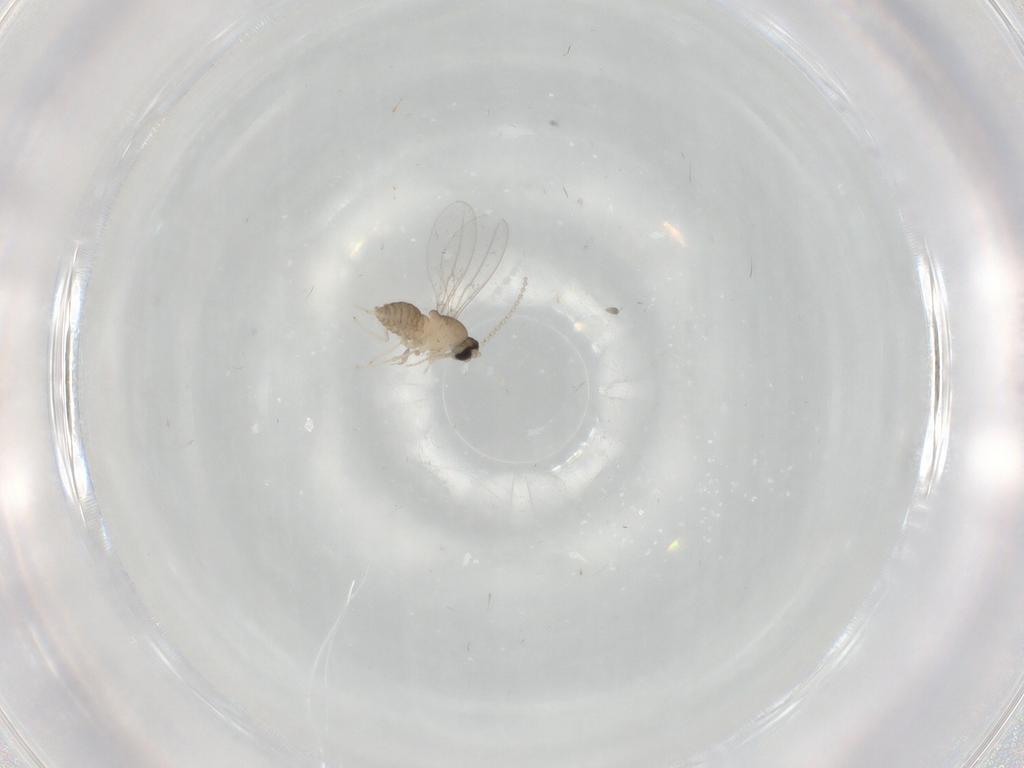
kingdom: Animalia
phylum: Arthropoda
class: Insecta
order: Diptera
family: Cecidomyiidae
